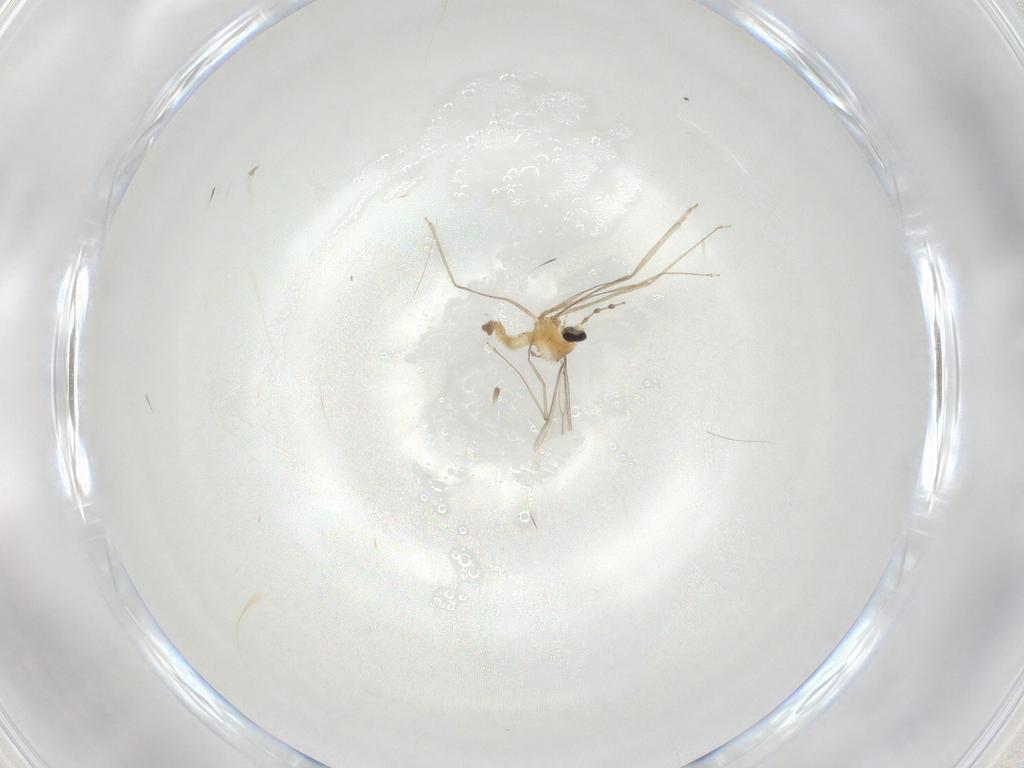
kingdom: Animalia
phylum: Arthropoda
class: Insecta
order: Diptera
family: Cecidomyiidae
